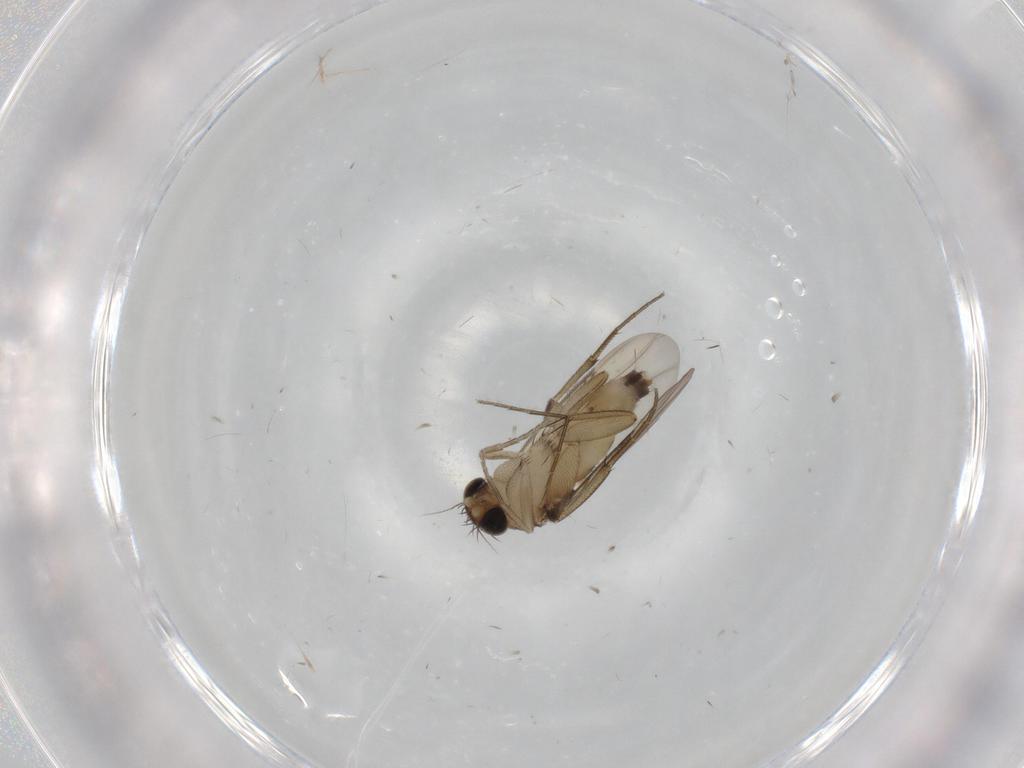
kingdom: Animalia
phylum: Arthropoda
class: Insecta
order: Diptera
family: Phoridae
